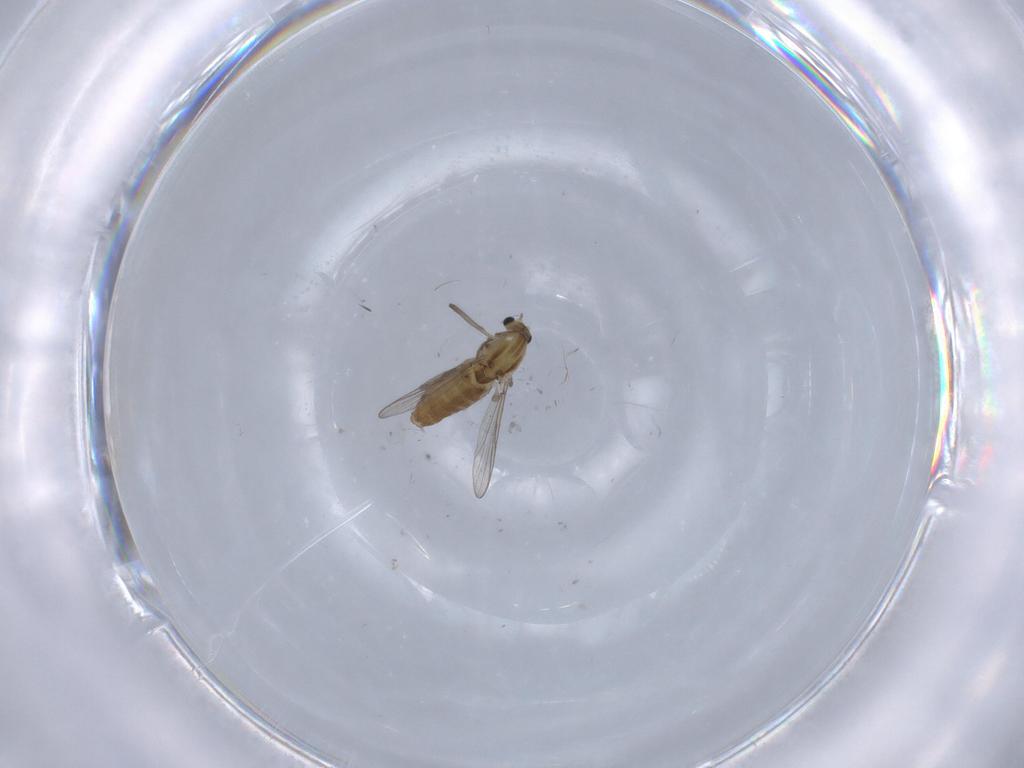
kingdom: Animalia
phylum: Arthropoda
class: Insecta
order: Diptera
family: Chironomidae
